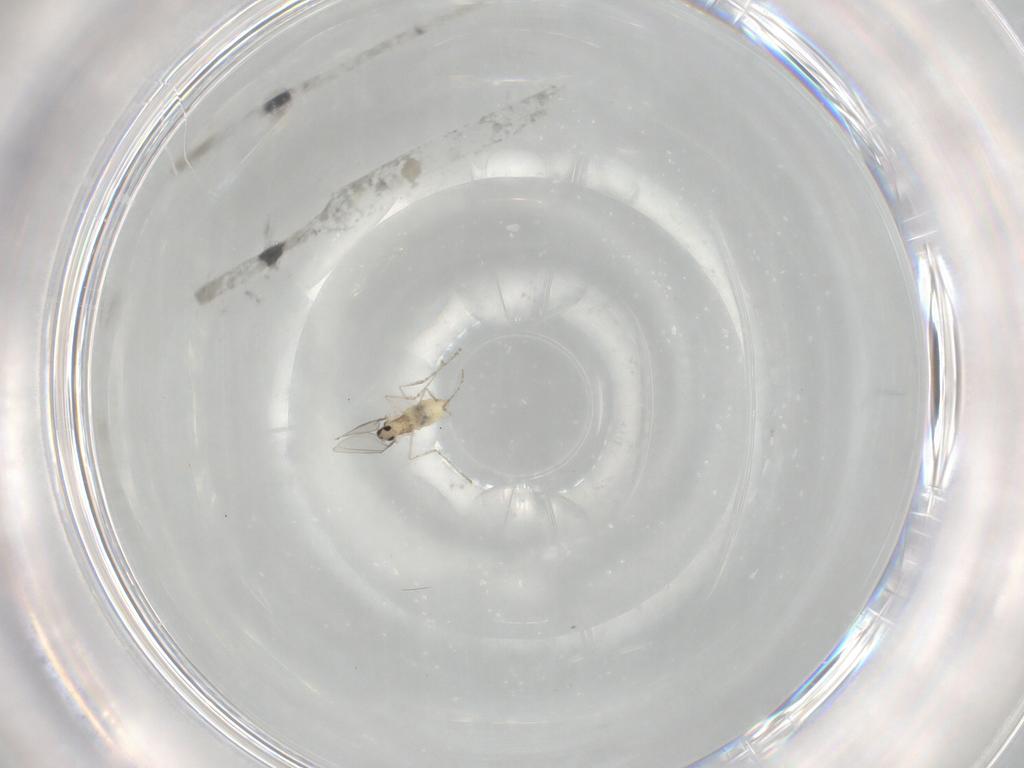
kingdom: Animalia
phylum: Arthropoda
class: Insecta
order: Diptera
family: Cecidomyiidae
